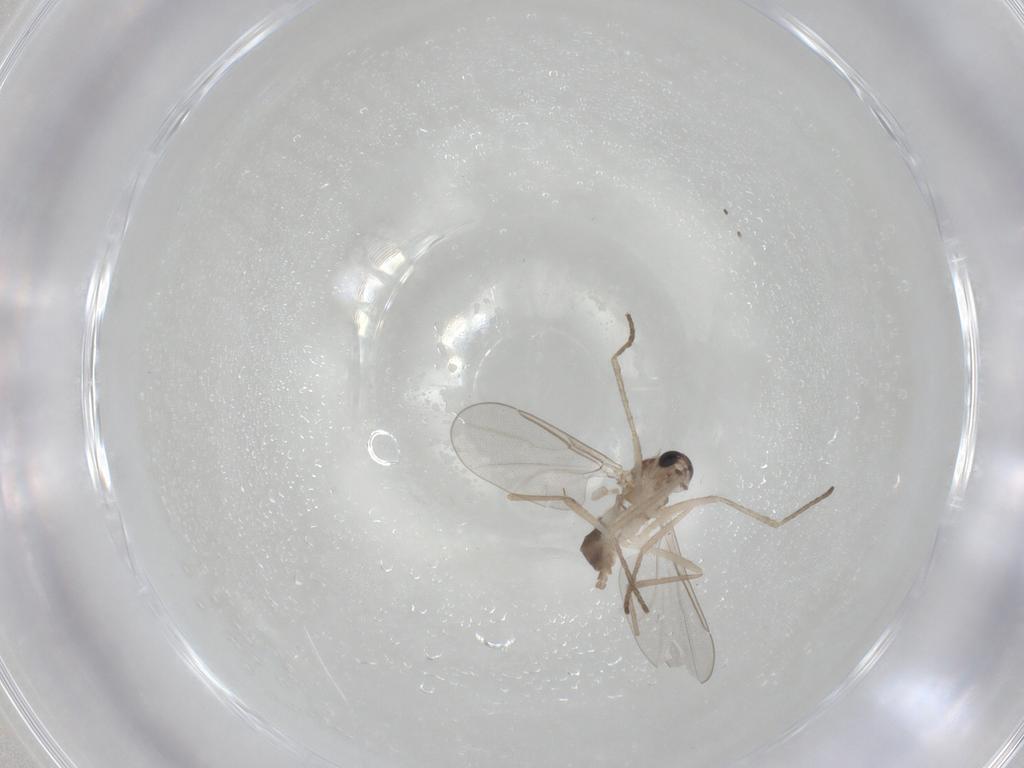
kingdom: Animalia
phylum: Arthropoda
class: Insecta
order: Diptera
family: Cecidomyiidae
